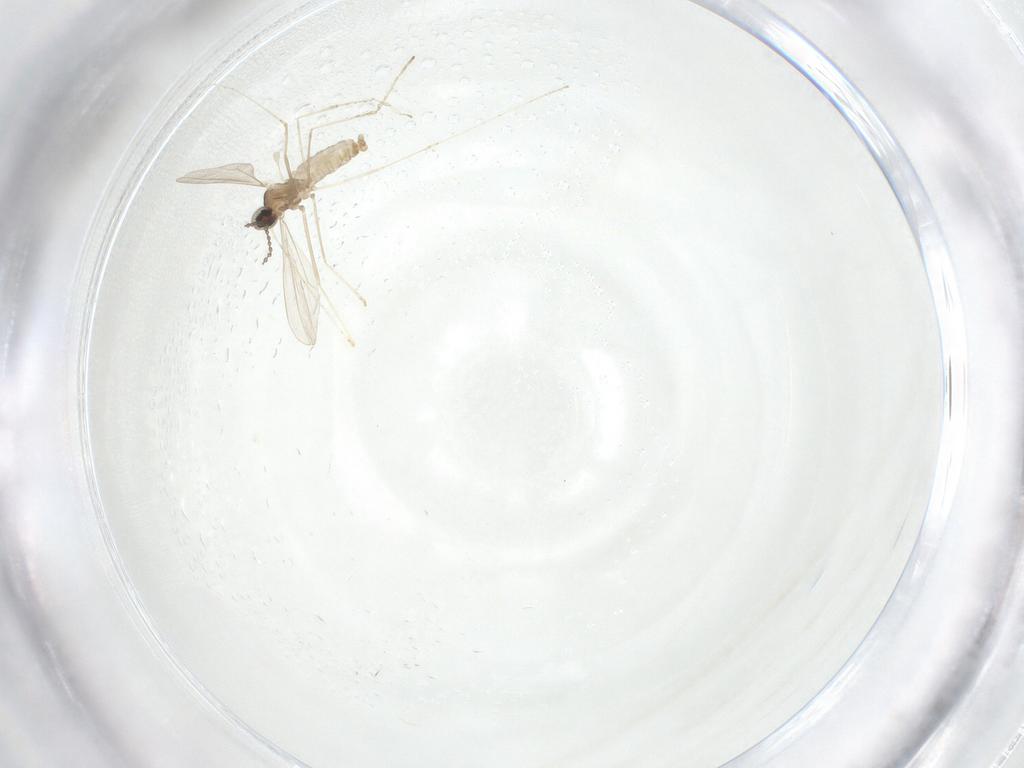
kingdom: Animalia
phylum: Arthropoda
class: Insecta
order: Diptera
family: Cecidomyiidae
